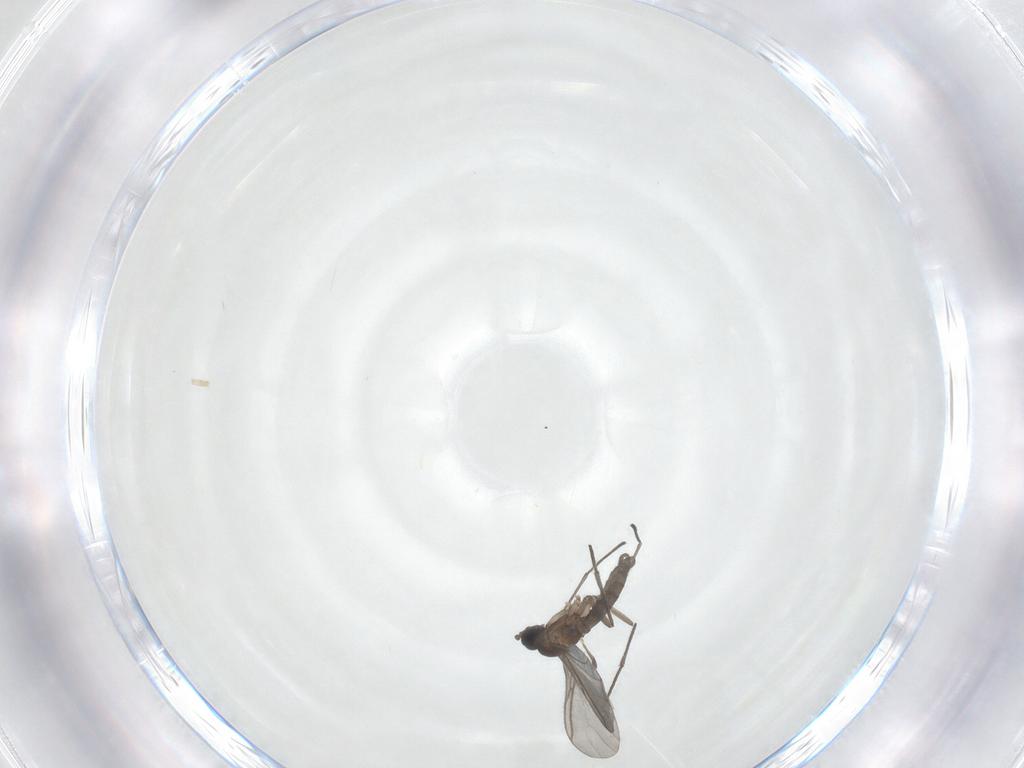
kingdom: Animalia
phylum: Arthropoda
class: Insecta
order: Diptera
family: Chironomidae
